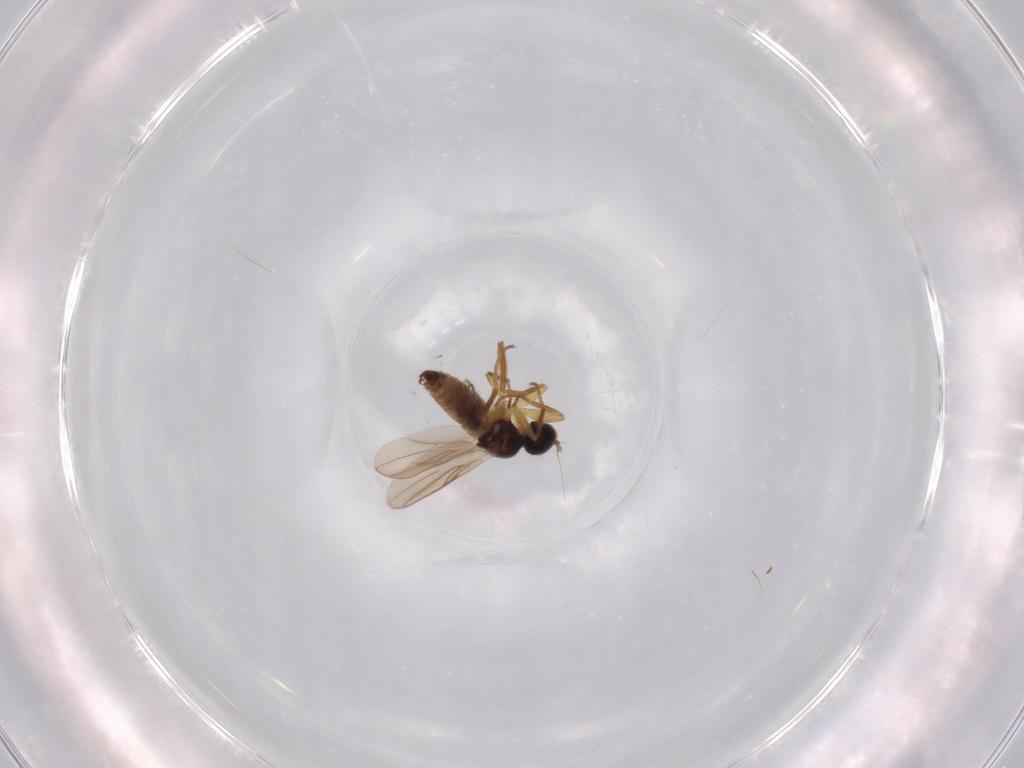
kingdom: Animalia
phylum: Arthropoda
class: Insecta
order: Diptera
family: Hybotidae
